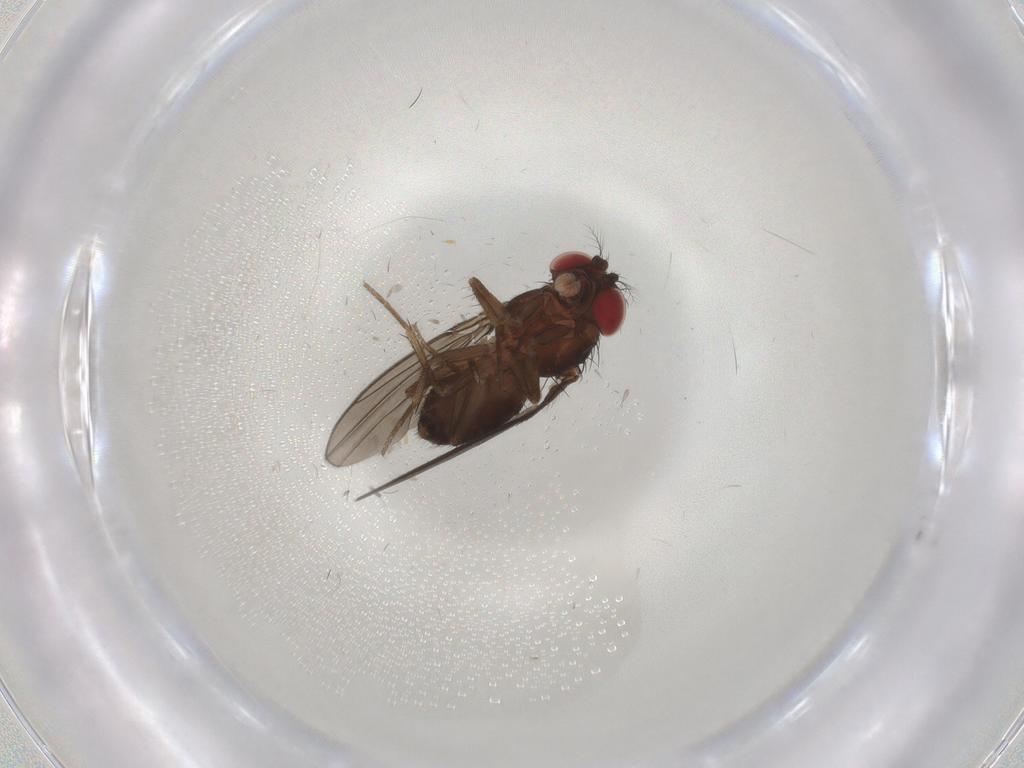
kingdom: Animalia
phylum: Arthropoda
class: Insecta
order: Diptera
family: Drosophilidae
